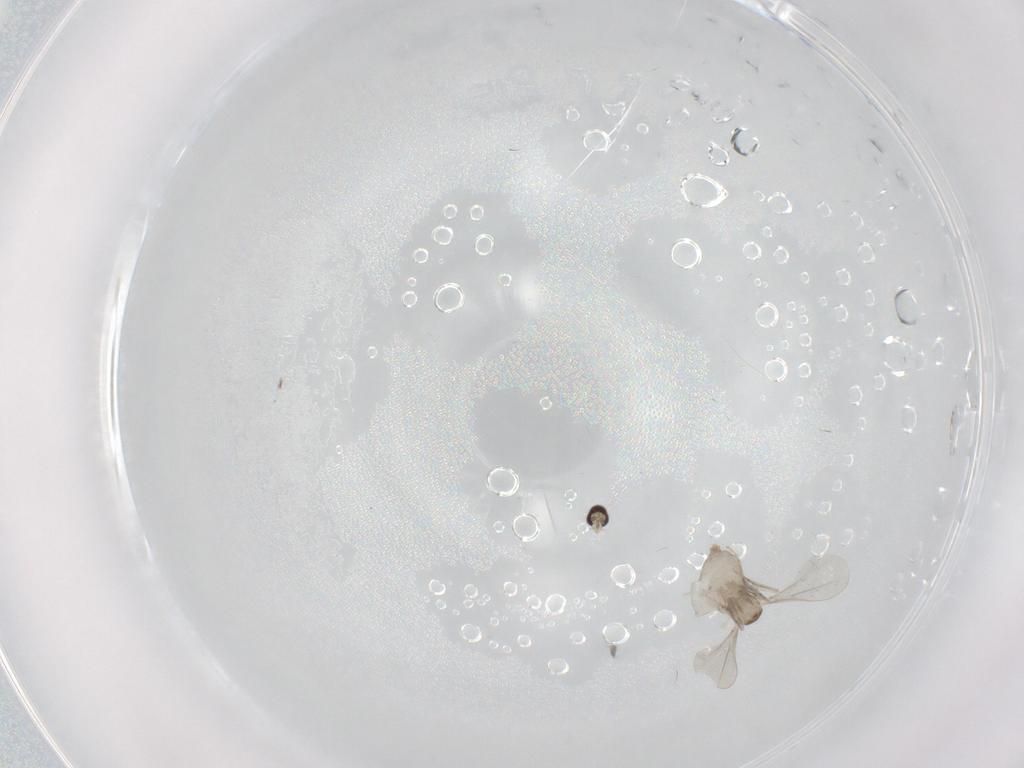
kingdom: Animalia
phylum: Arthropoda
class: Insecta
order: Diptera
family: Cecidomyiidae
